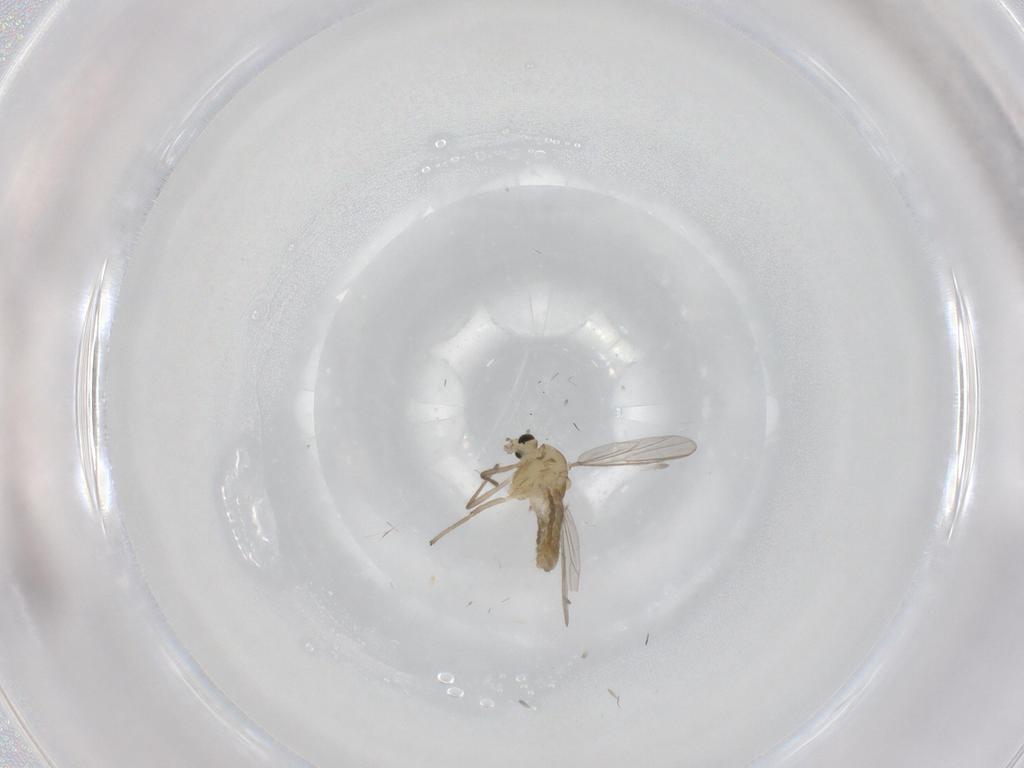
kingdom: Animalia
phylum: Arthropoda
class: Insecta
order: Diptera
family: Chironomidae
